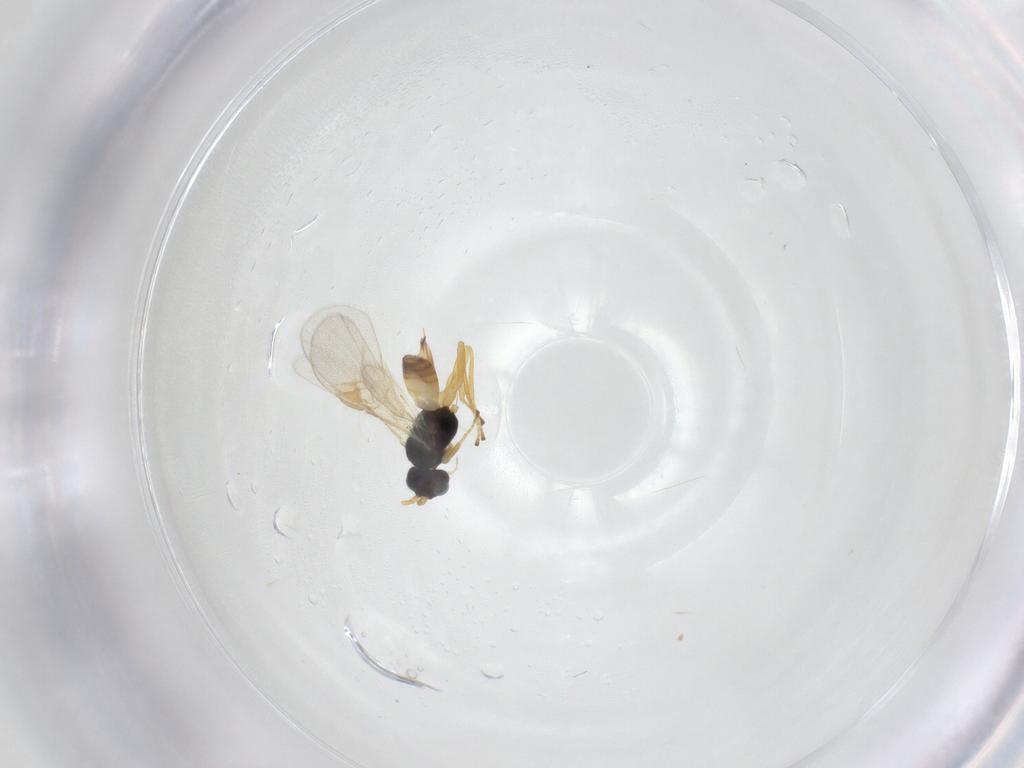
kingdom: Animalia
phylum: Arthropoda
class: Insecta
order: Hymenoptera
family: Braconidae
